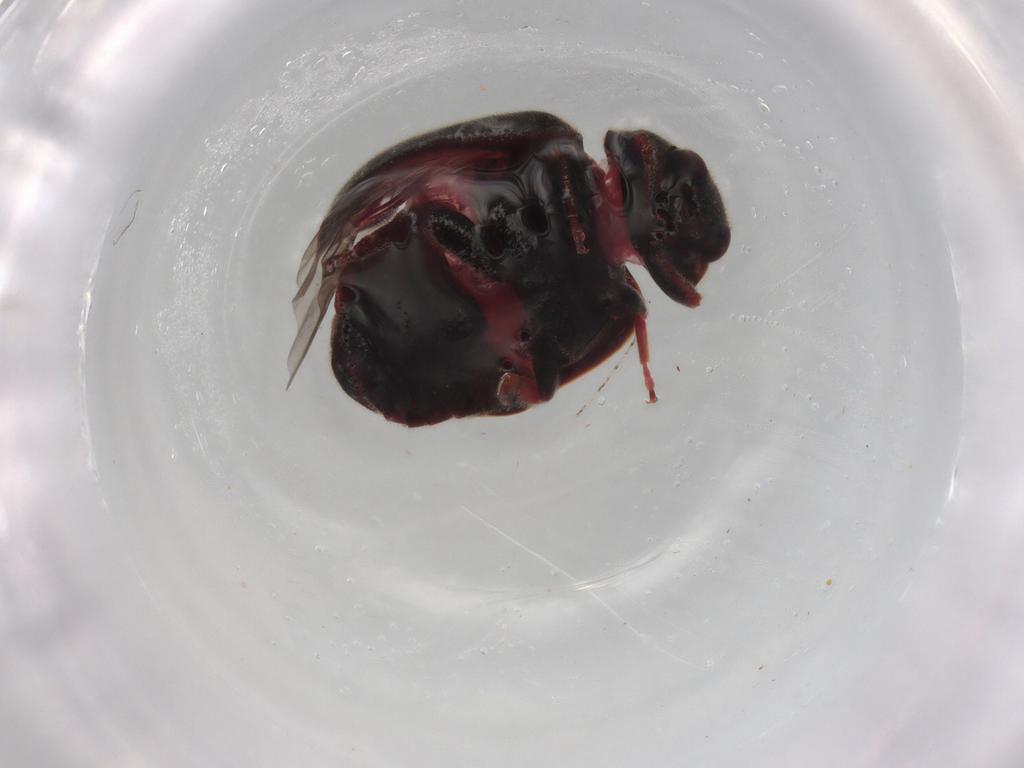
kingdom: Animalia
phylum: Arthropoda
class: Insecta
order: Coleoptera
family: Coccinellidae
